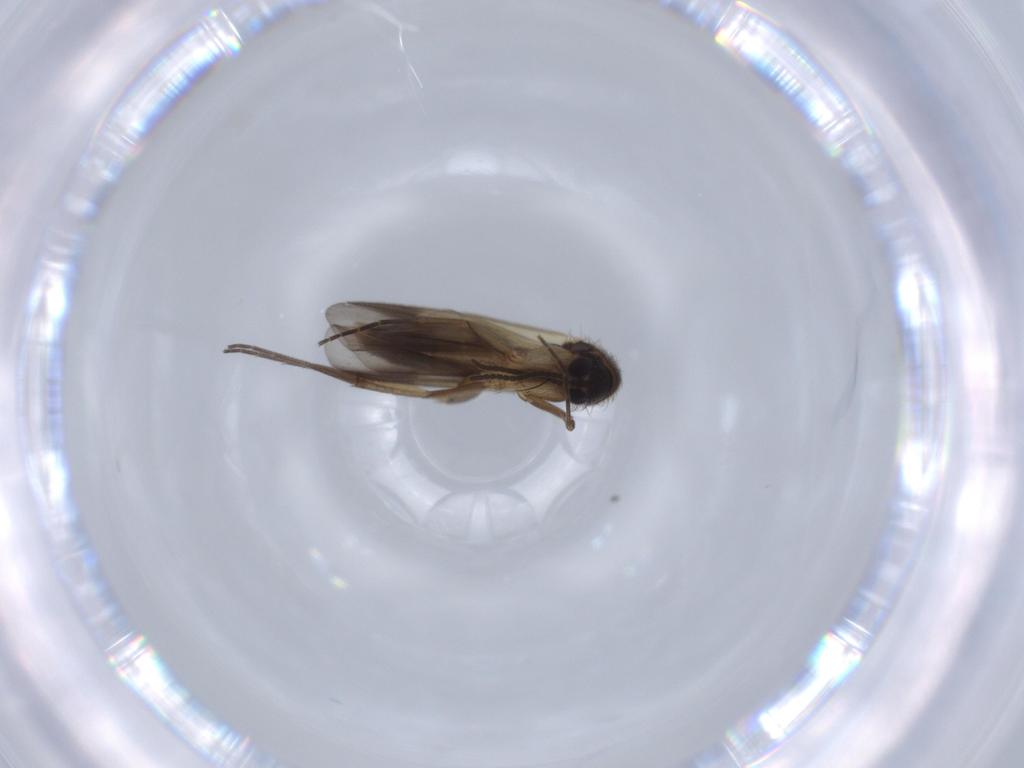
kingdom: Animalia
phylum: Arthropoda
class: Insecta
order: Diptera
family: Mycetophilidae
